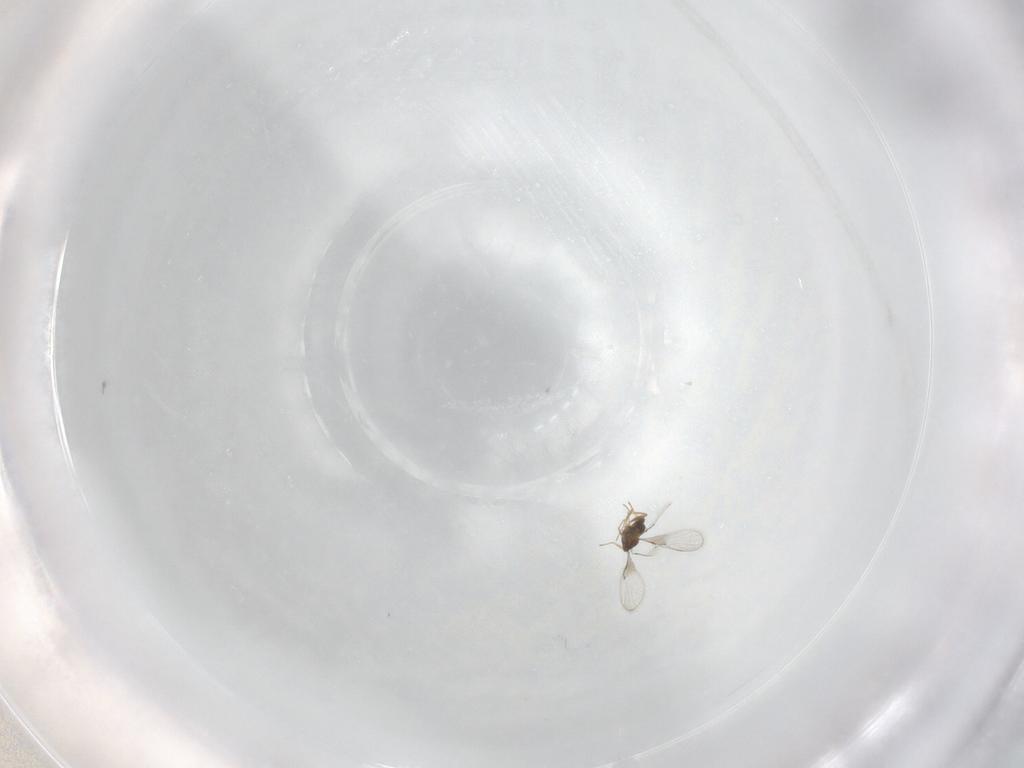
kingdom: Animalia
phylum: Arthropoda
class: Insecta
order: Hymenoptera
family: Trichogrammatidae
